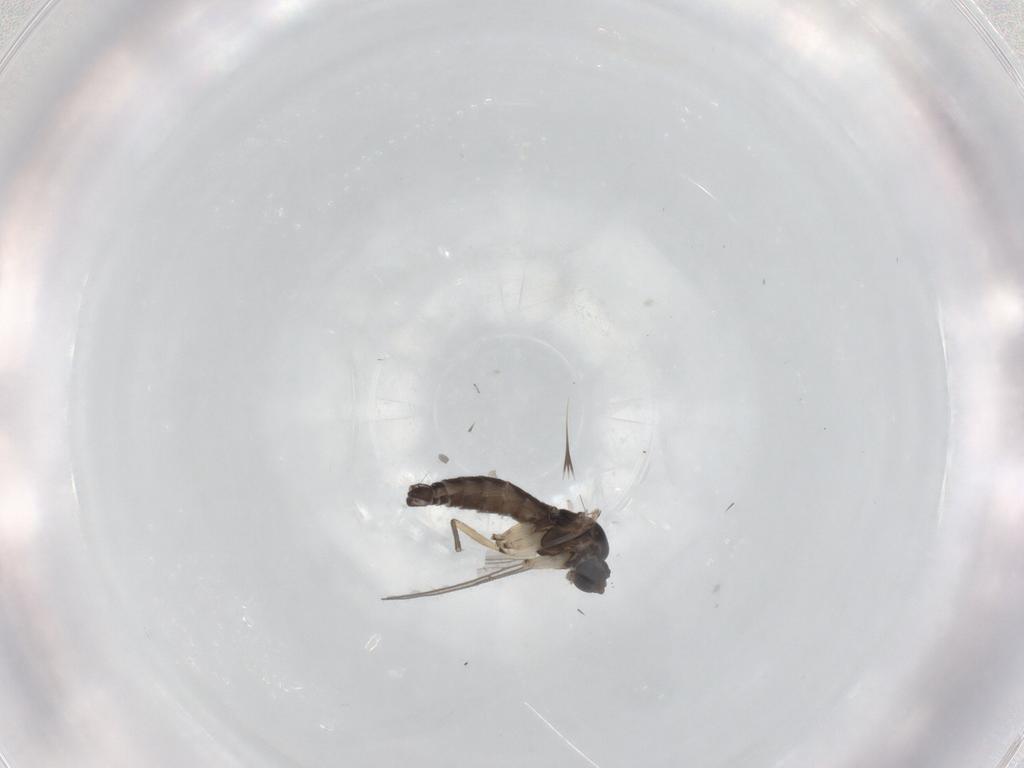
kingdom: Animalia
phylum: Arthropoda
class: Insecta
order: Diptera
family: Sciaridae
